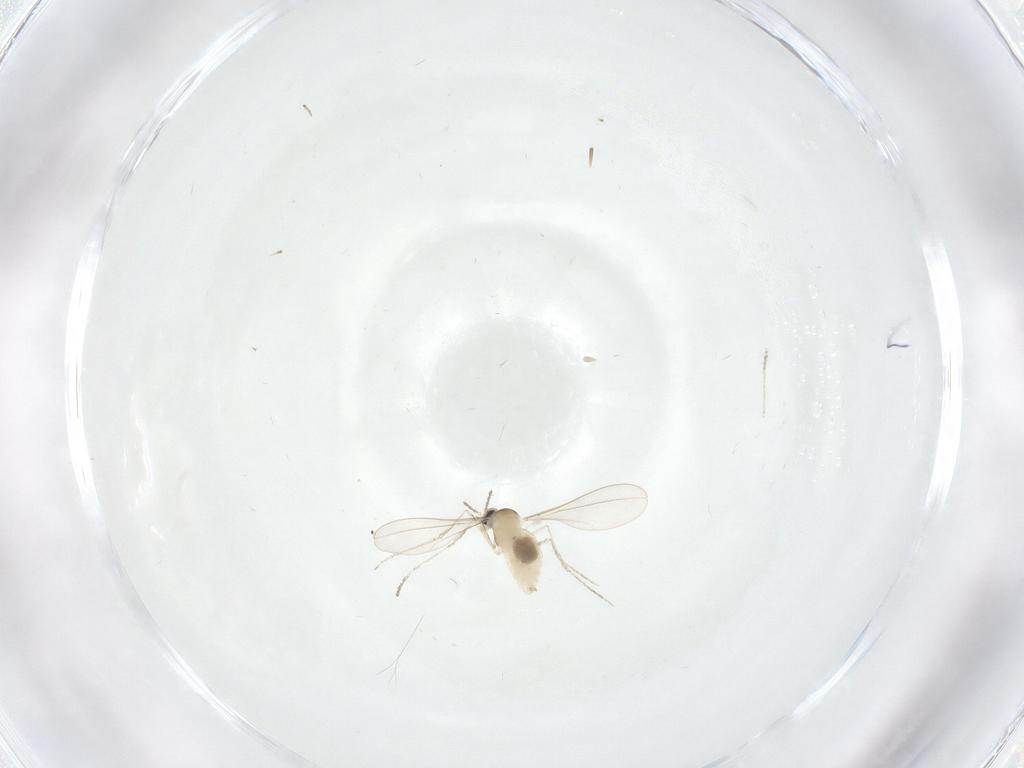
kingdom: Animalia
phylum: Arthropoda
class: Insecta
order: Diptera
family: Cecidomyiidae
